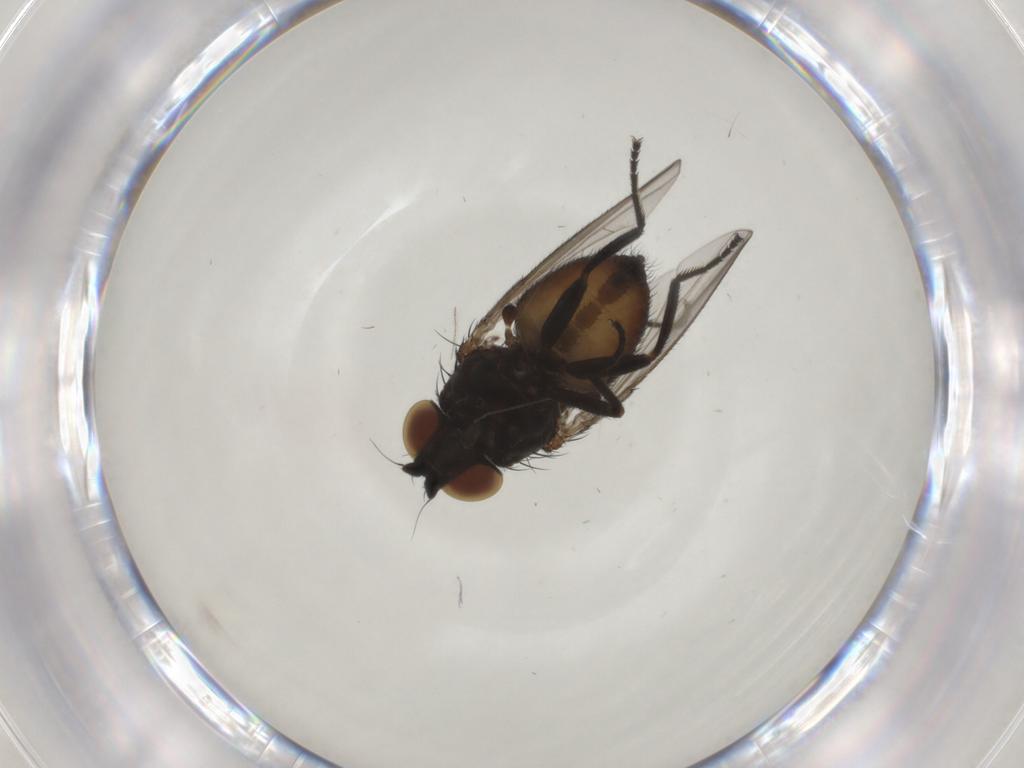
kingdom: Animalia
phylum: Arthropoda
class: Insecta
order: Diptera
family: Milichiidae
